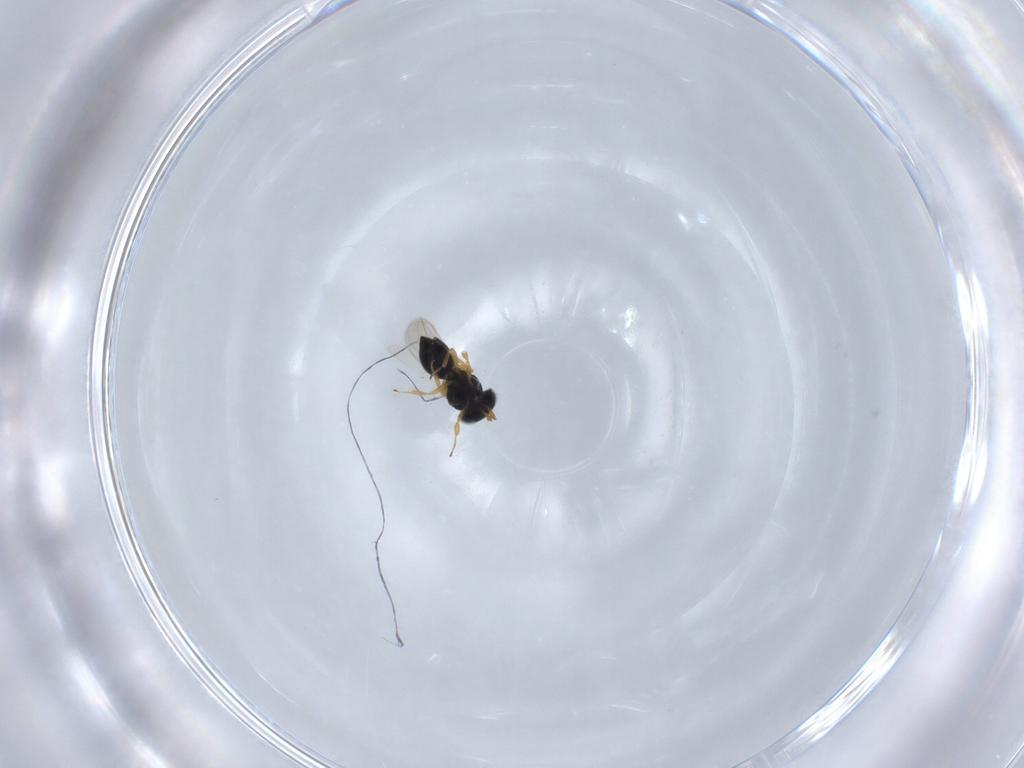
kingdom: Animalia
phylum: Arthropoda
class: Insecta
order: Hymenoptera
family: Scelionidae
